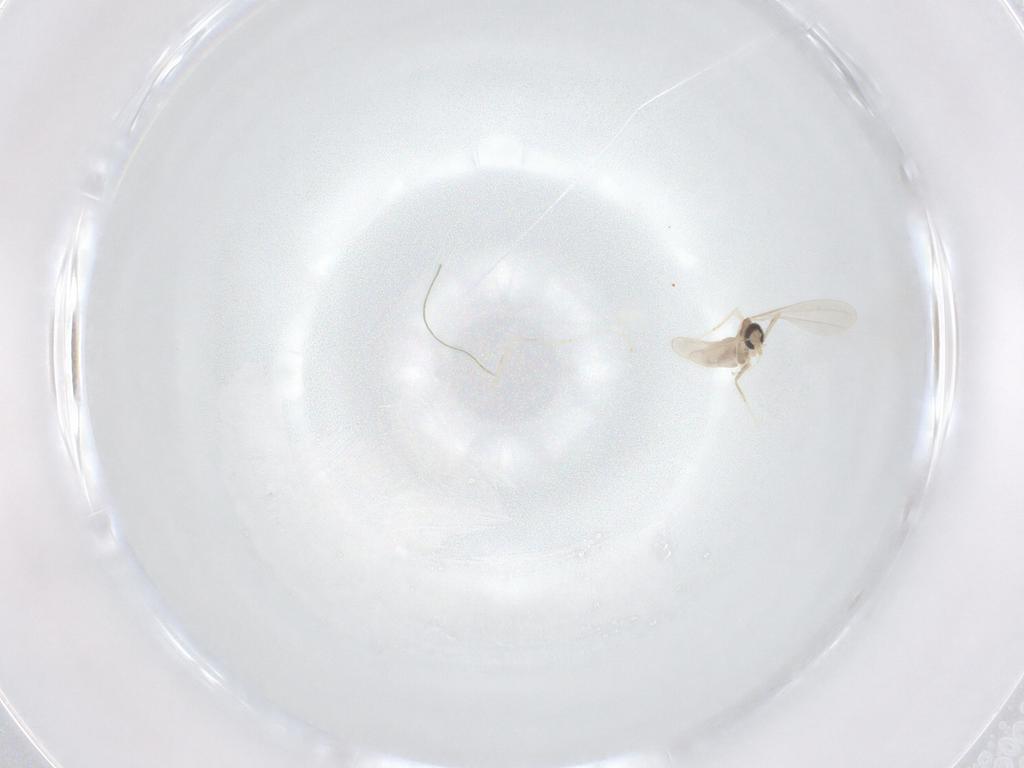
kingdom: Animalia
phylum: Arthropoda
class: Insecta
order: Diptera
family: Cecidomyiidae
